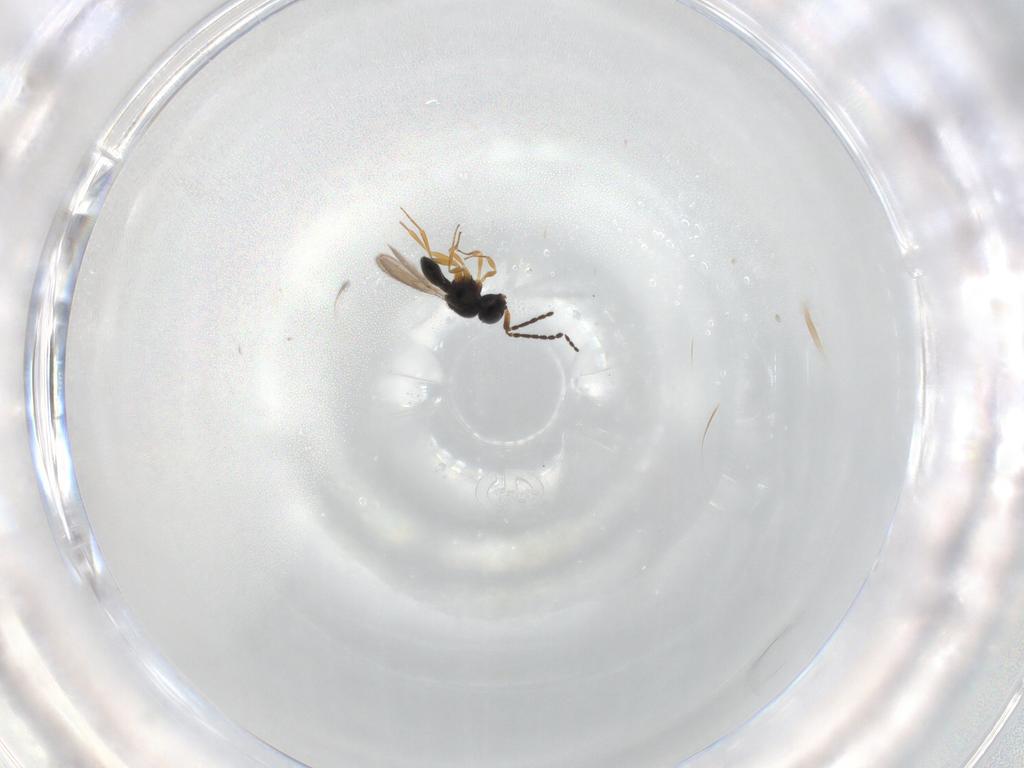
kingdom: Animalia
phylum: Arthropoda
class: Insecta
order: Hymenoptera
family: Scelionidae
